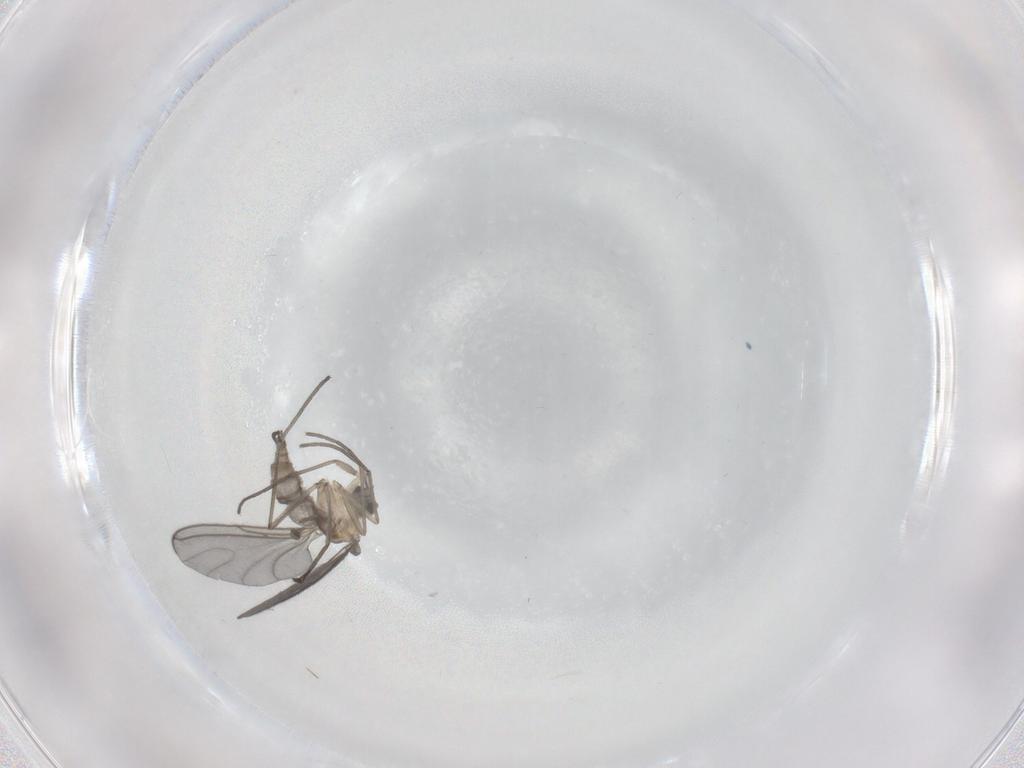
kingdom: Animalia
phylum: Arthropoda
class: Insecta
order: Diptera
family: Sciaridae
